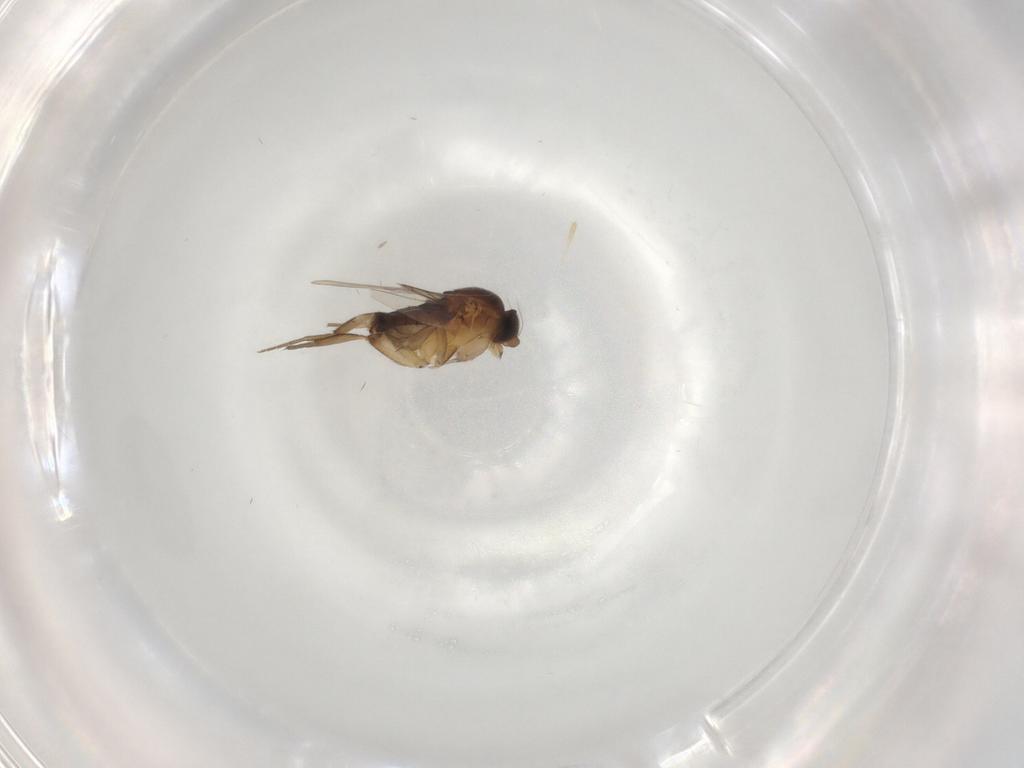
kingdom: Animalia
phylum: Arthropoda
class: Insecta
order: Diptera
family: Phoridae
